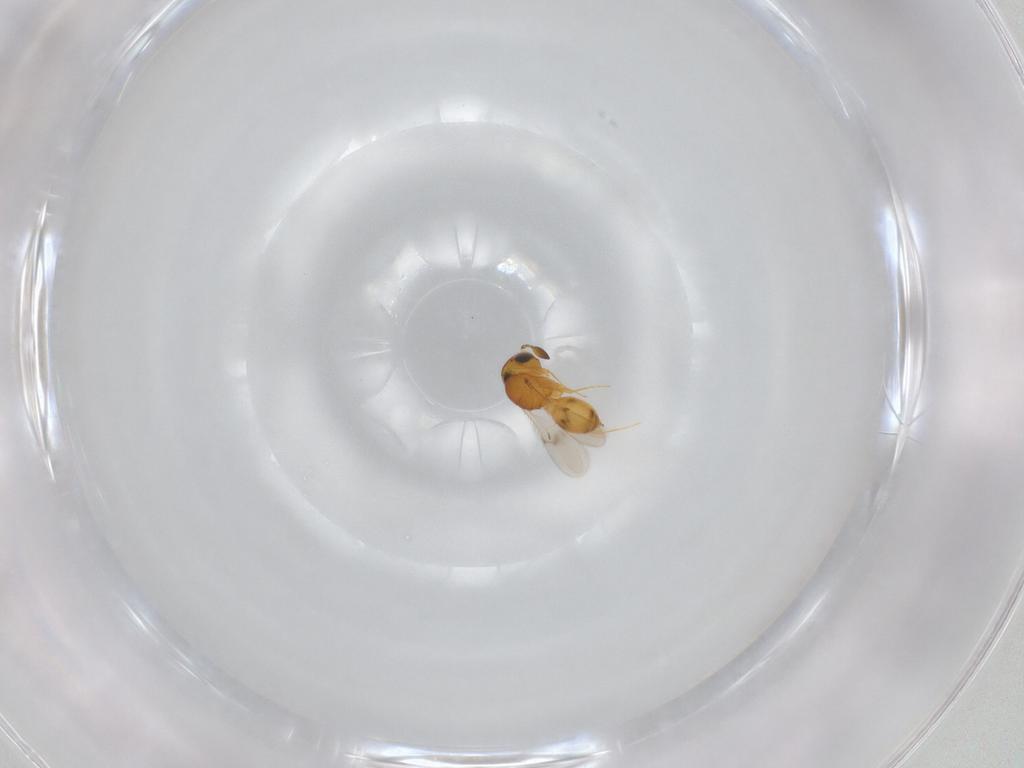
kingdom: Animalia
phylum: Arthropoda
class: Insecta
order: Hymenoptera
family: Scelionidae
